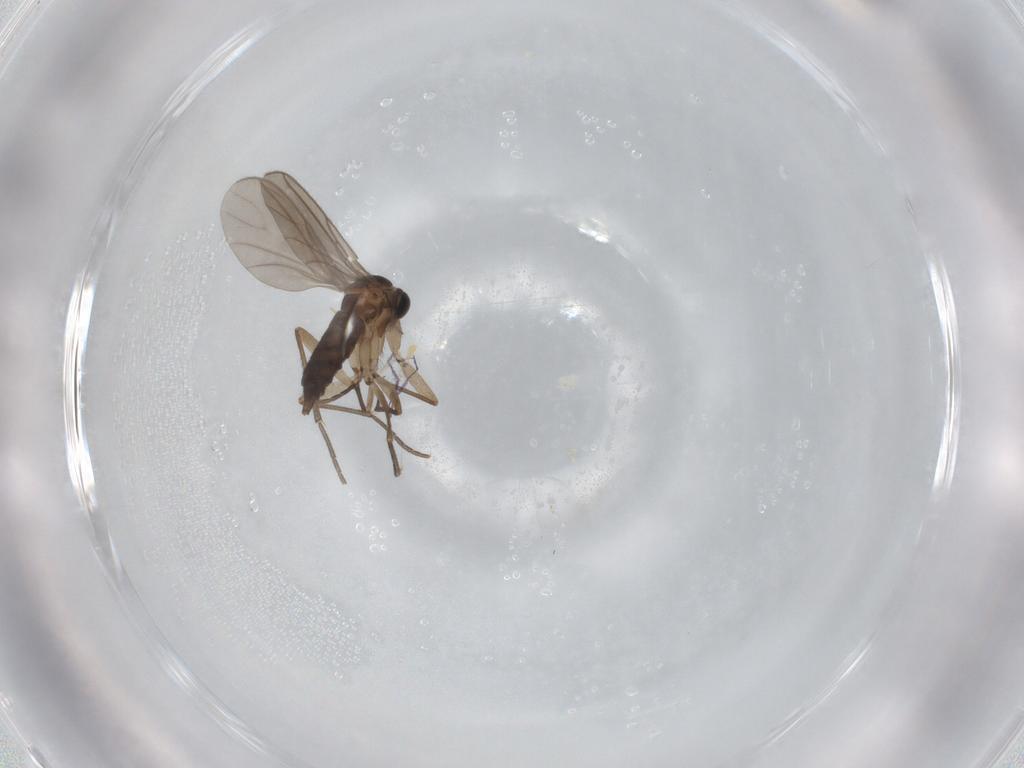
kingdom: Animalia
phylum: Arthropoda
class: Insecta
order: Diptera
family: Sciaridae
